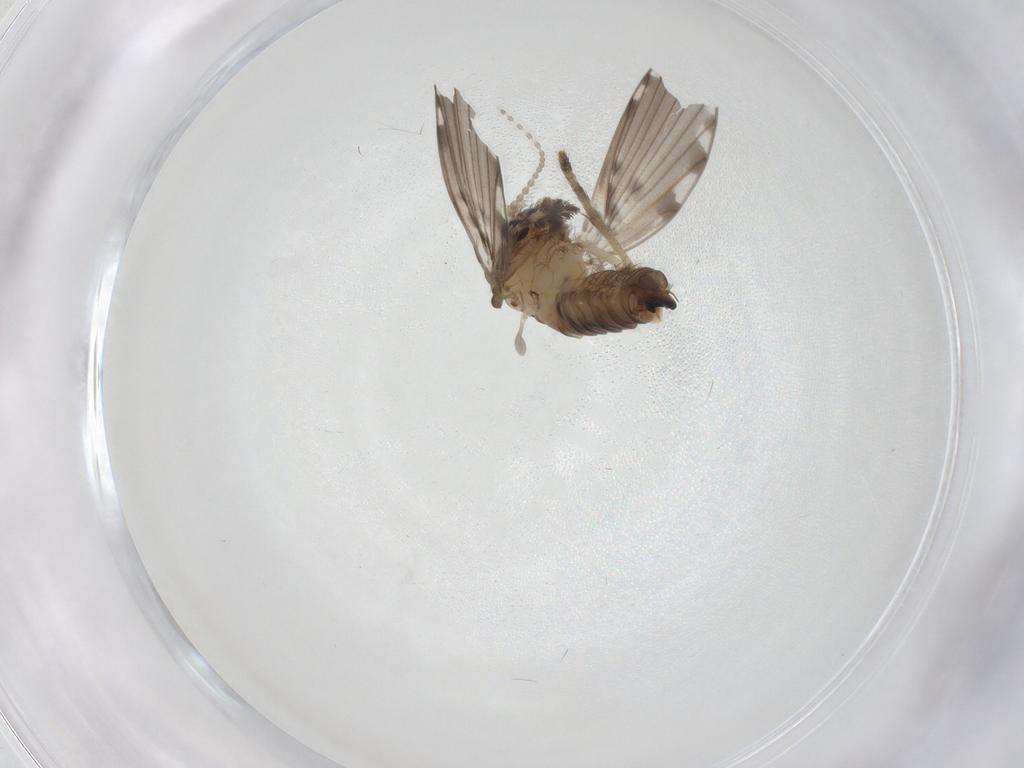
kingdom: Animalia
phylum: Arthropoda
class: Insecta
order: Diptera
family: Psychodidae
